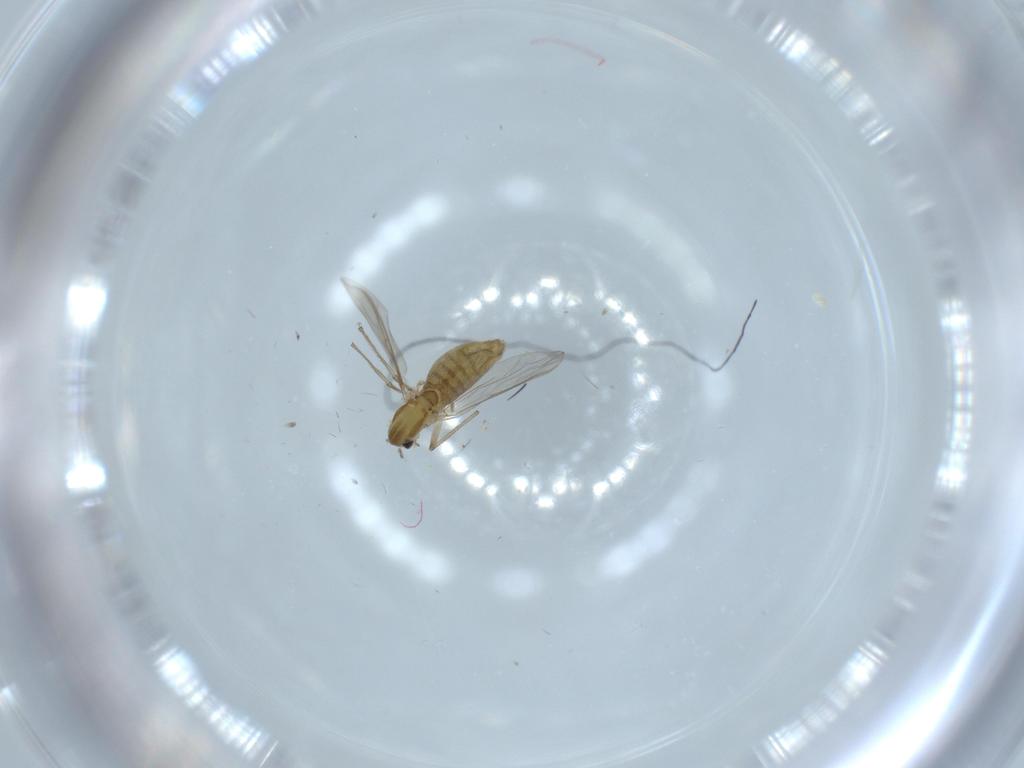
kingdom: Animalia
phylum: Arthropoda
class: Insecta
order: Diptera
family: Chironomidae
